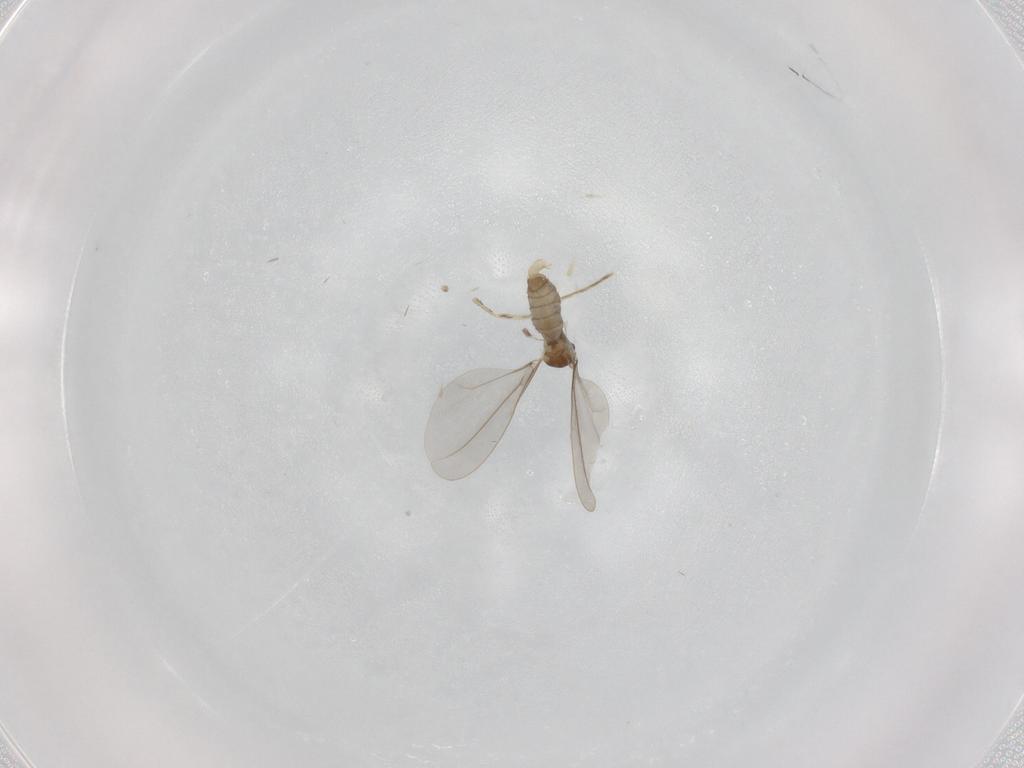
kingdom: Animalia
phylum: Arthropoda
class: Insecta
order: Diptera
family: Cecidomyiidae
